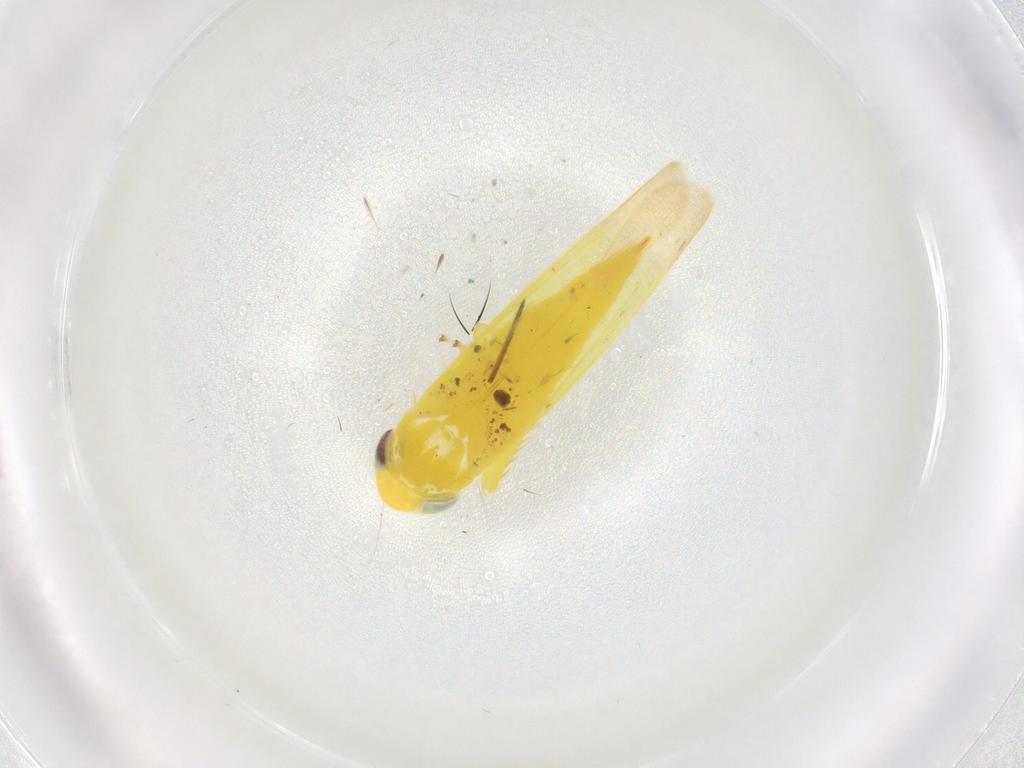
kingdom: Animalia
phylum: Arthropoda
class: Insecta
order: Hemiptera
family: Cicadellidae
